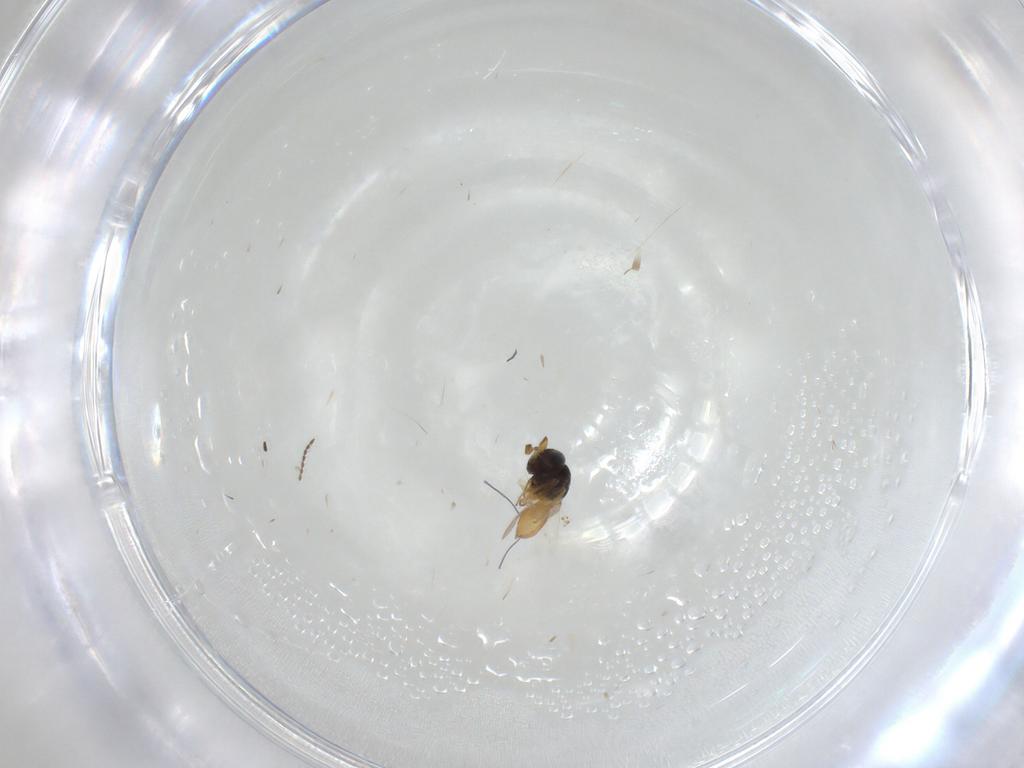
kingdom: Animalia
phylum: Arthropoda
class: Insecta
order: Hymenoptera
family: Scelionidae
